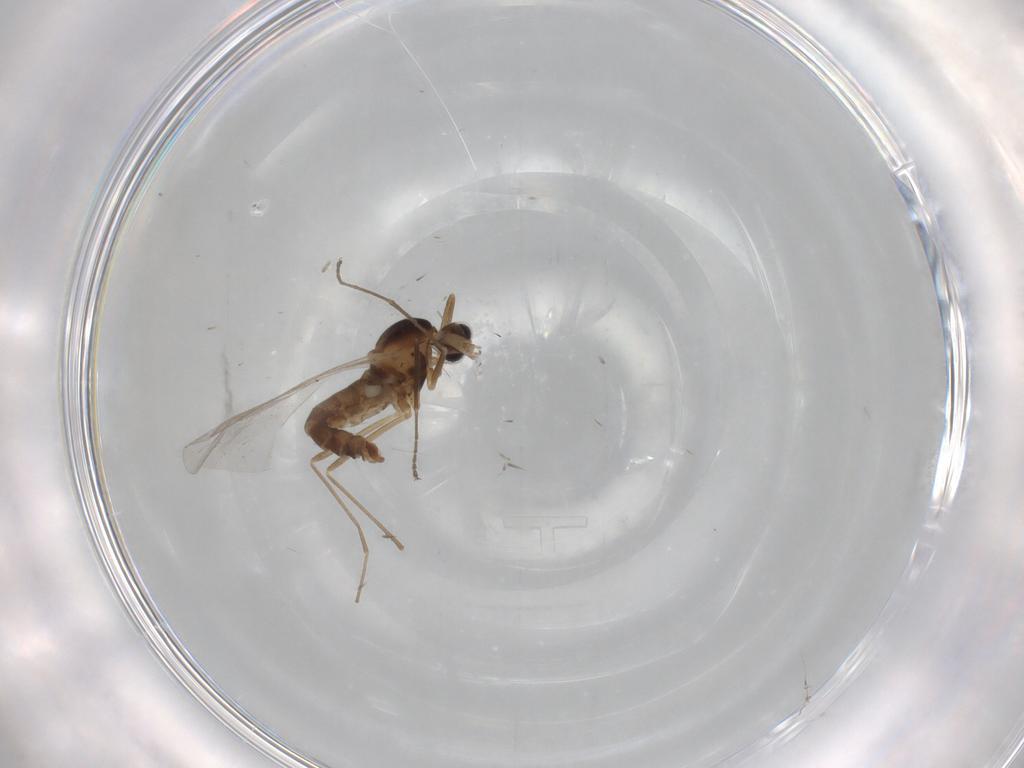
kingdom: Animalia
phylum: Arthropoda
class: Insecta
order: Diptera
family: Cecidomyiidae
